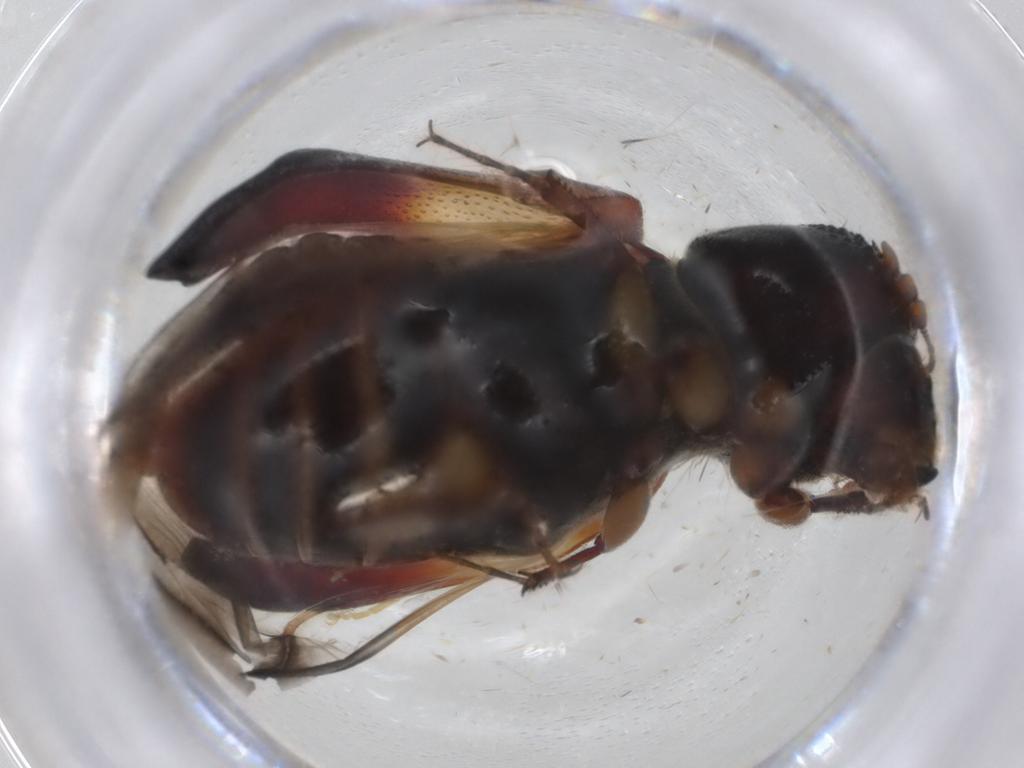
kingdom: Animalia
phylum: Arthropoda
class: Insecta
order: Coleoptera
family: Bostrichidae
